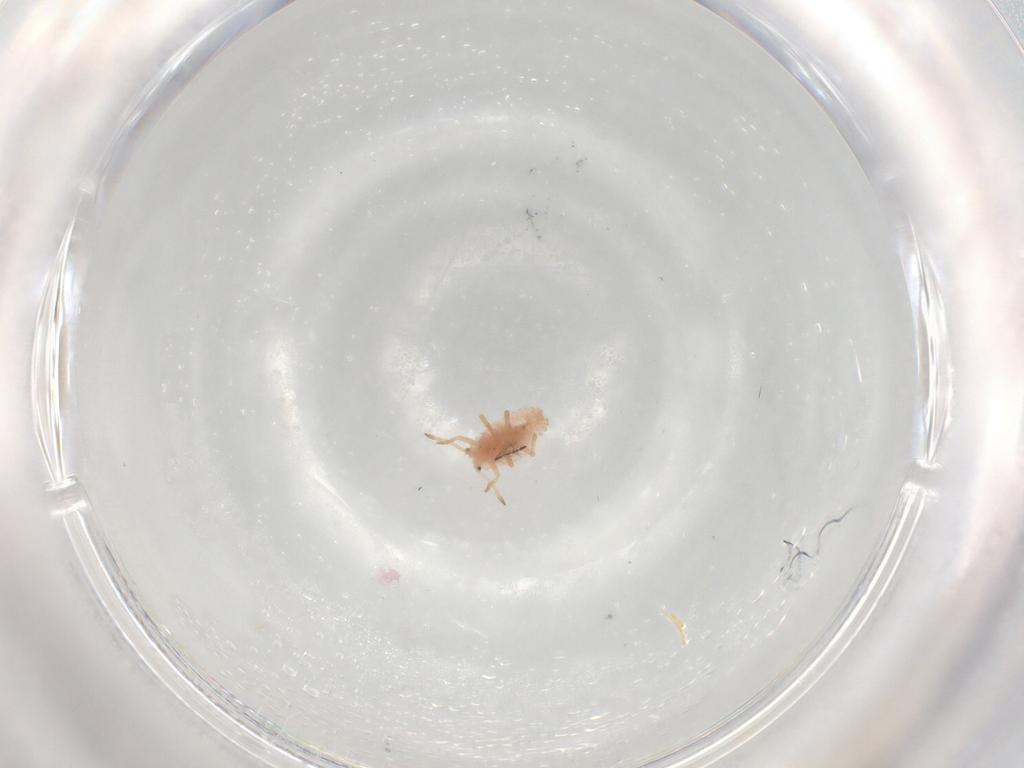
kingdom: Animalia
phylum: Arthropoda
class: Insecta
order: Hemiptera
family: Coccoidea_incertae_sedis
